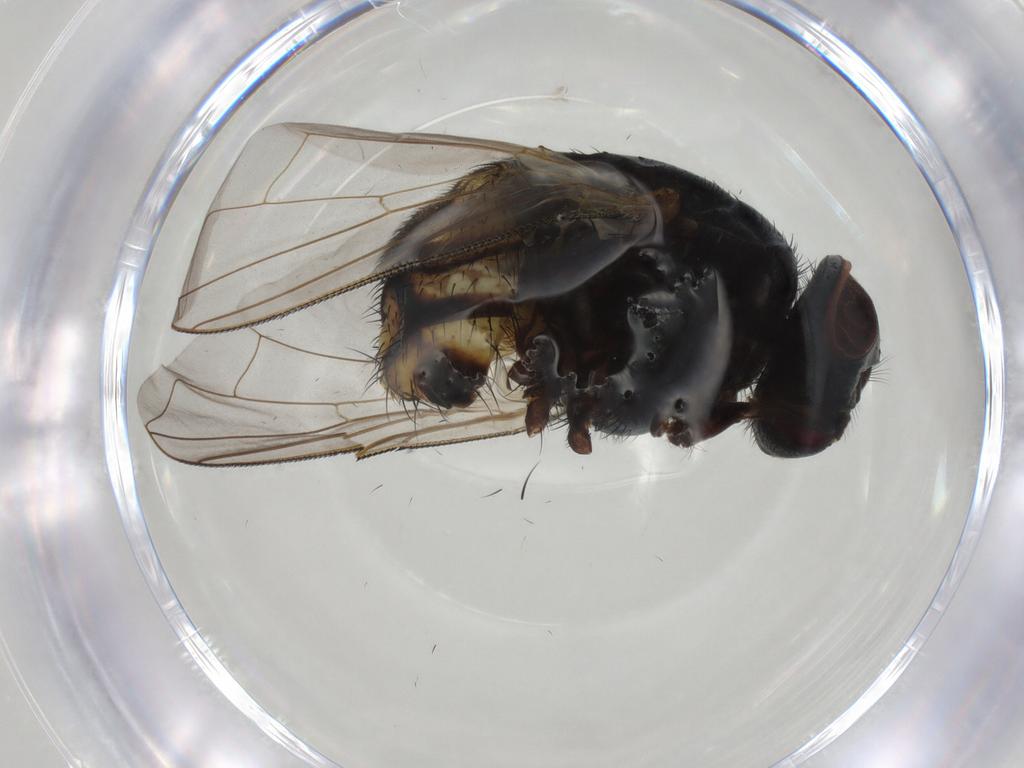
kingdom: Animalia
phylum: Arthropoda
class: Insecta
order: Diptera
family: Muscidae
